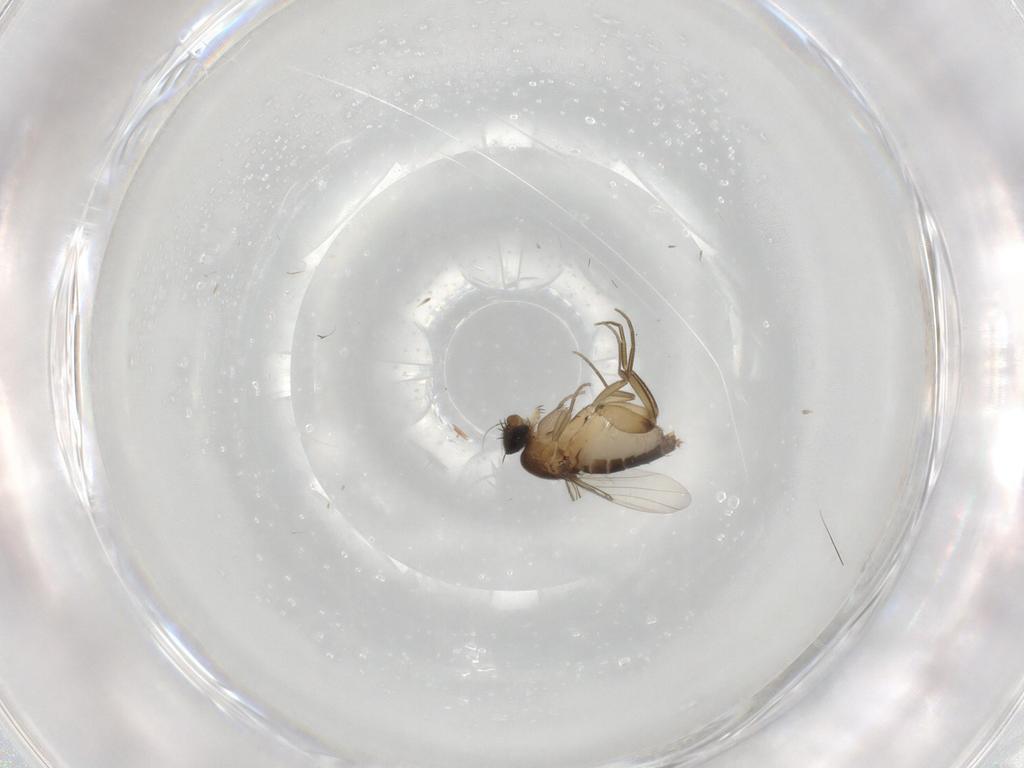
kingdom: Animalia
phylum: Arthropoda
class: Insecta
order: Diptera
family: Phoridae
